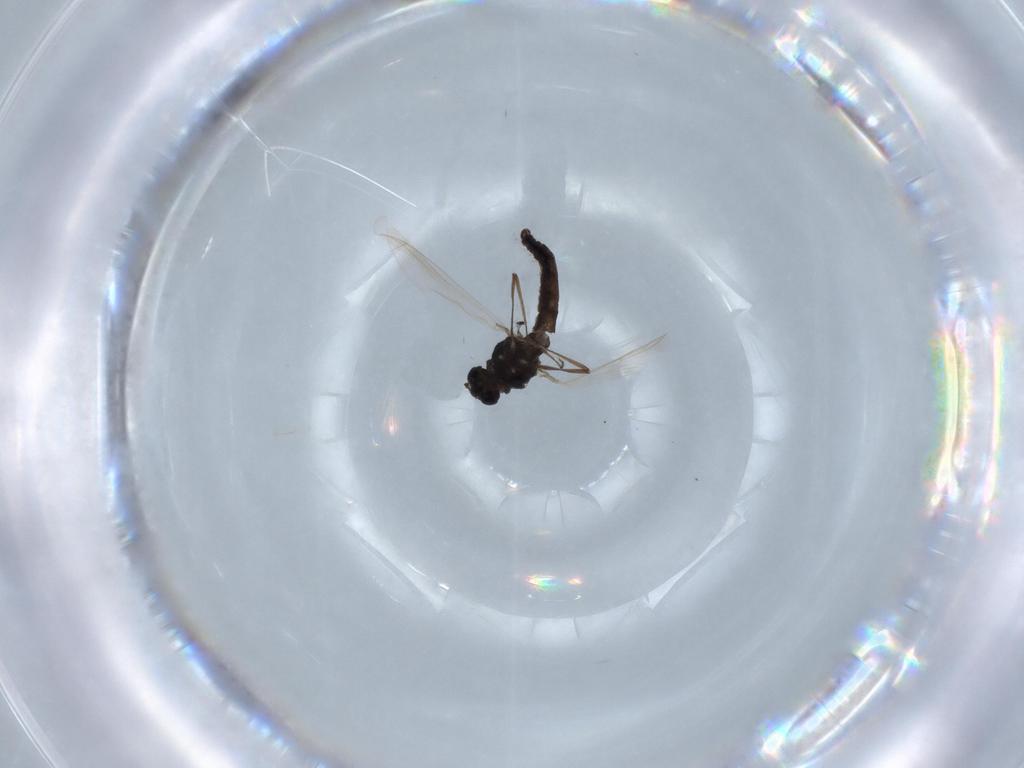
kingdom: Animalia
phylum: Arthropoda
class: Insecta
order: Diptera
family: Chironomidae
